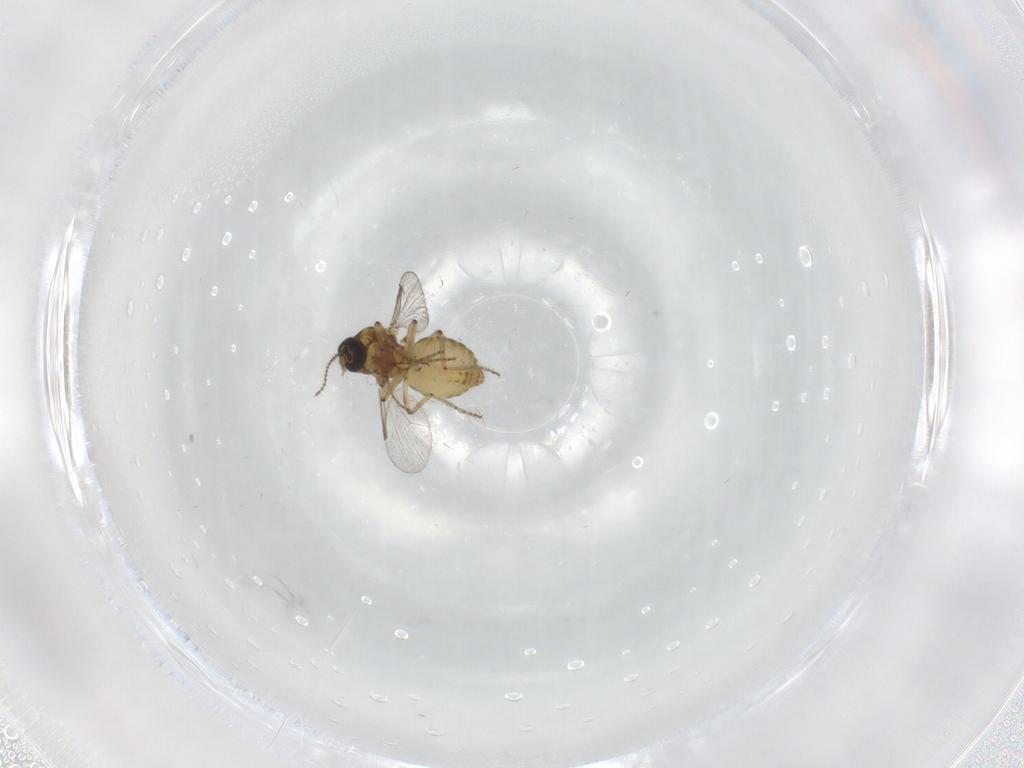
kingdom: Animalia
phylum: Arthropoda
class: Insecta
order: Diptera
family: Ceratopogonidae
